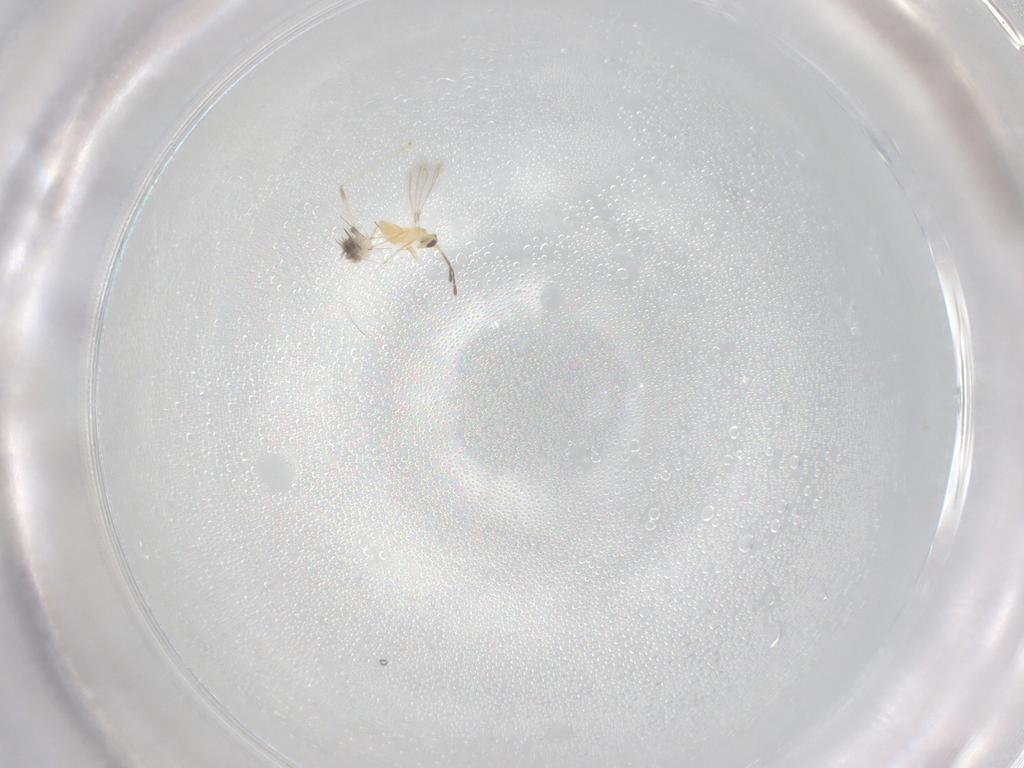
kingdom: Animalia
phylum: Arthropoda
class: Insecta
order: Hymenoptera
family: Mymaridae
